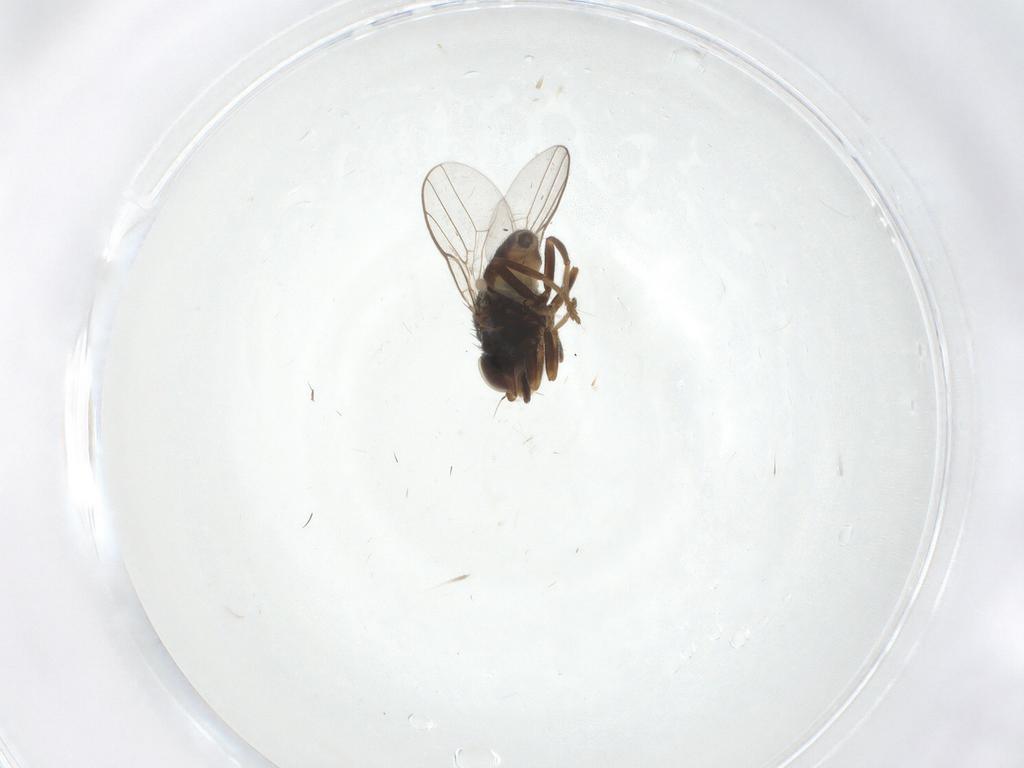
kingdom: Animalia
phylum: Arthropoda
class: Insecta
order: Diptera
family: Chloropidae
